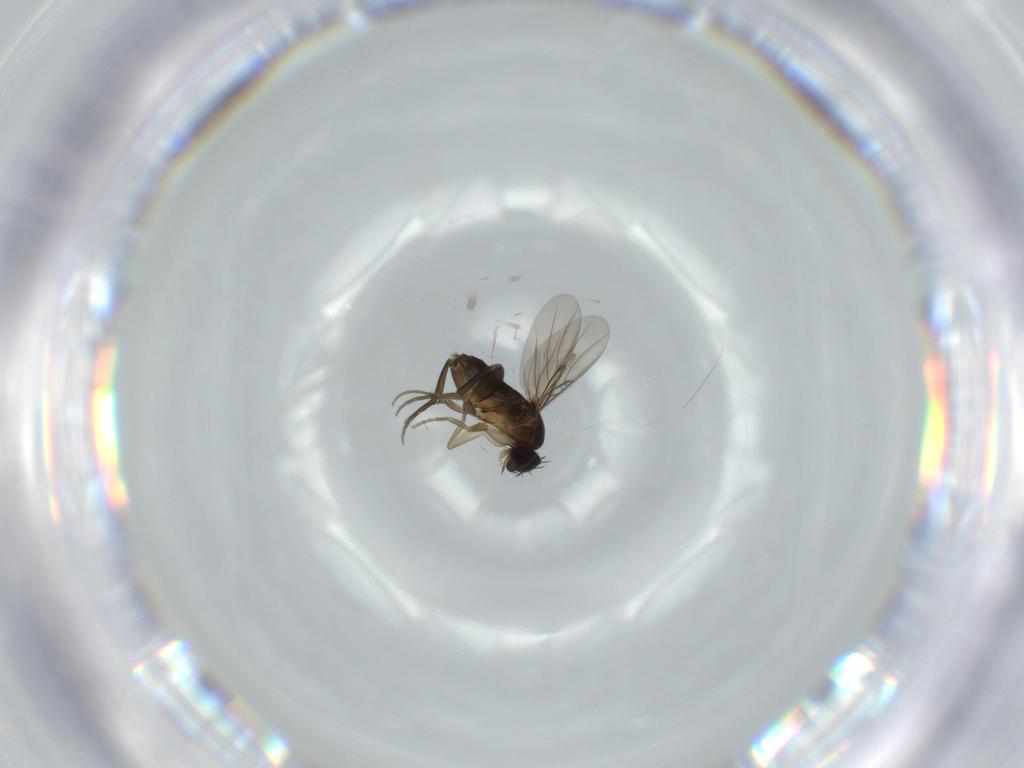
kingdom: Animalia
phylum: Arthropoda
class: Insecta
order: Diptera
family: Phoridae
